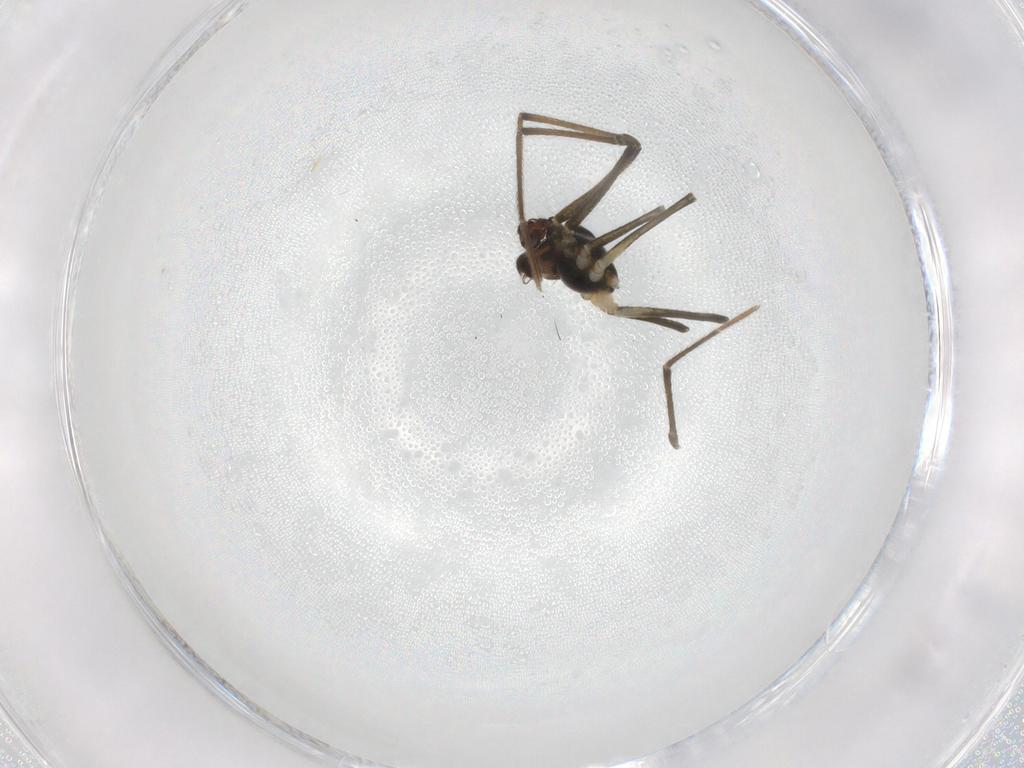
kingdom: Animalia
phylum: Arthropoda
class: Arachnida
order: Araneae
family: Linyphiidae
